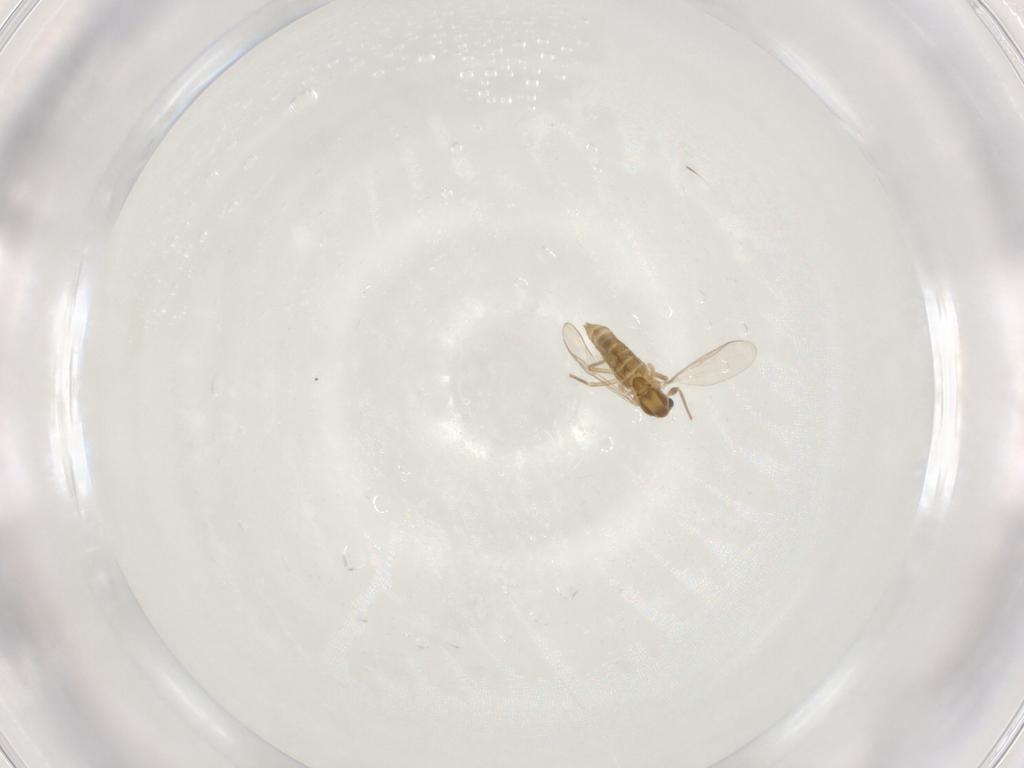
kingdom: Animalia
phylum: Arthropoda
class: Insecta
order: Diptera
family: Chironomidae
